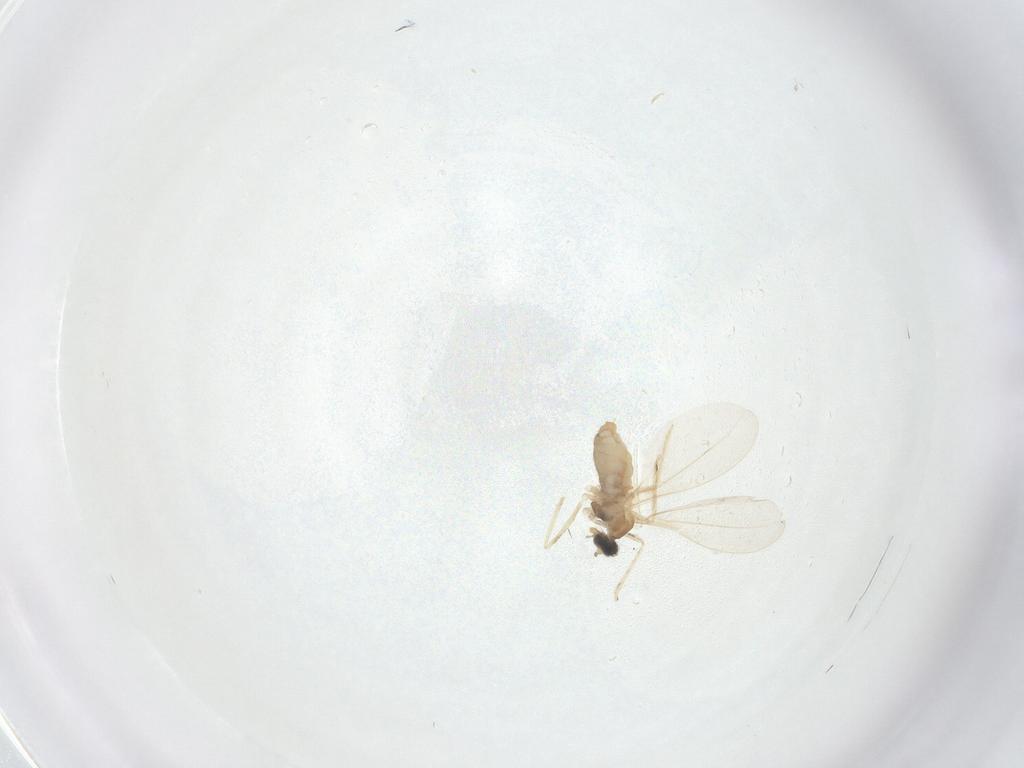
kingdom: Animalia
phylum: Arthropoda
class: Insecta
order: Diptera
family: Cecidomyiidae
